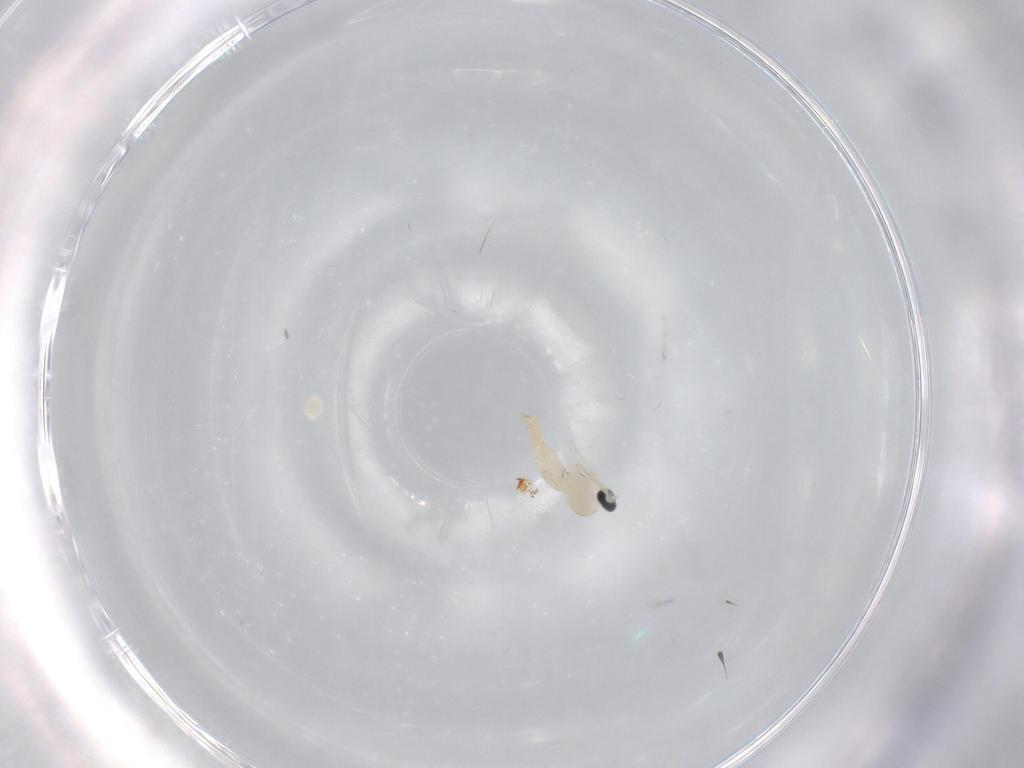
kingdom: Animalia
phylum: Arthropoda
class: Insecta
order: Diptera
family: Cecidomyiidae
